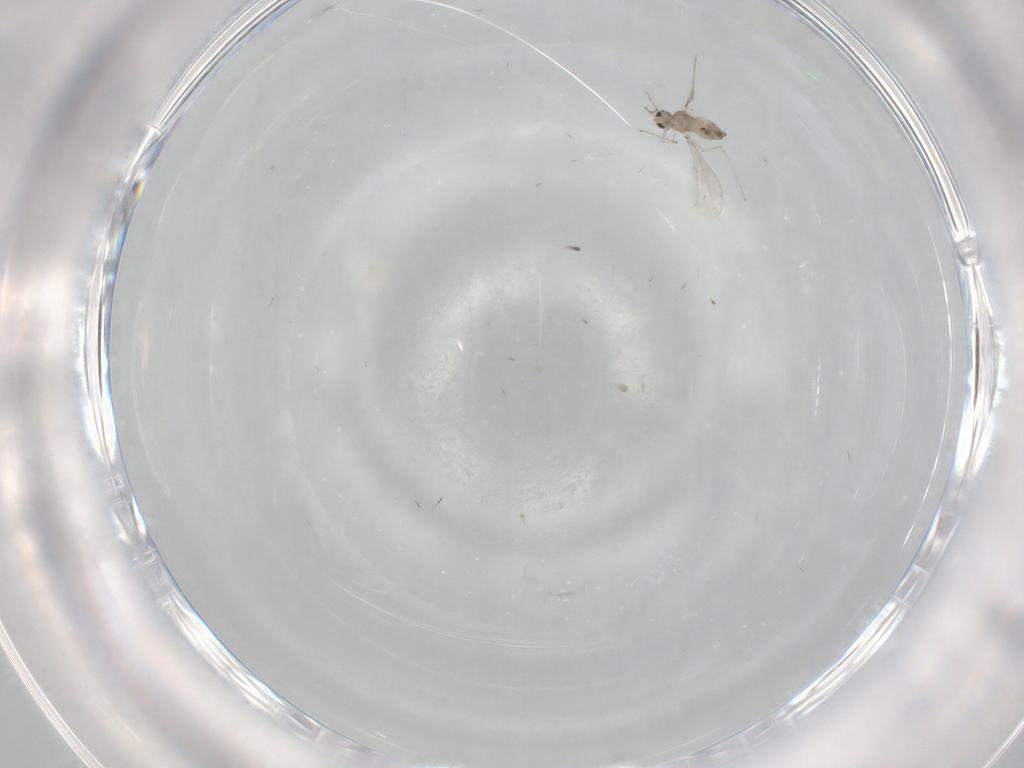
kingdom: Animalia
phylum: Arthropoda
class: Insecta
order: Diptera
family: Cecidomyiidae
